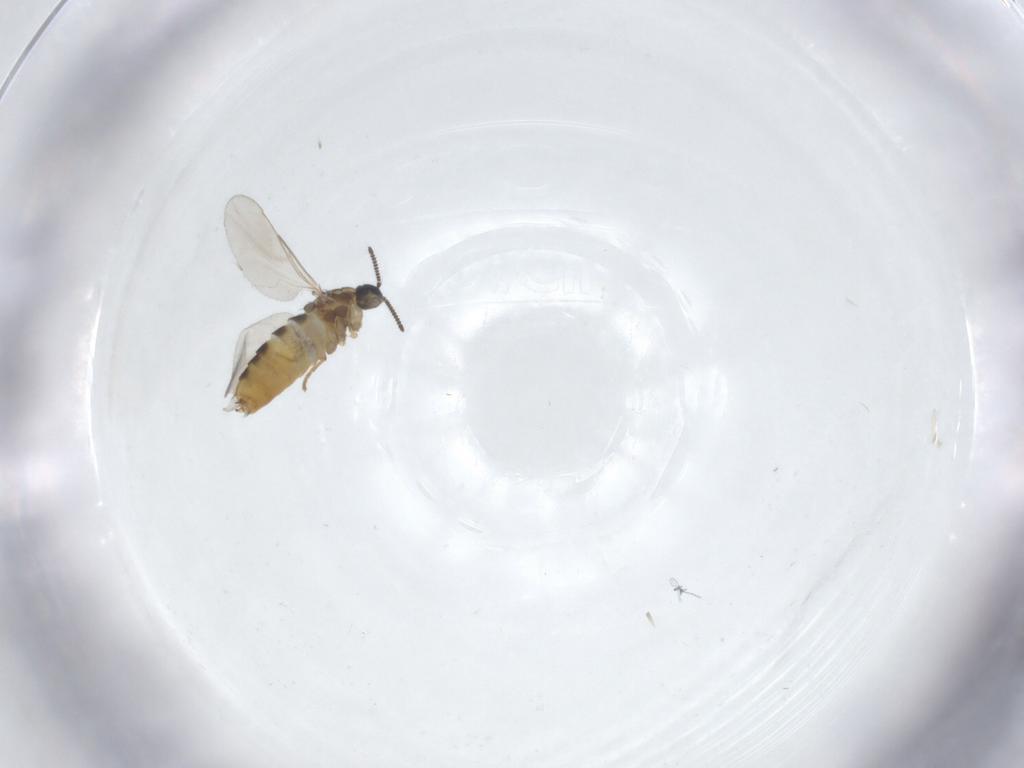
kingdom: Animalia
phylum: Arthropoda
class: Insecta
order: Diptera
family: Scatopsidae
